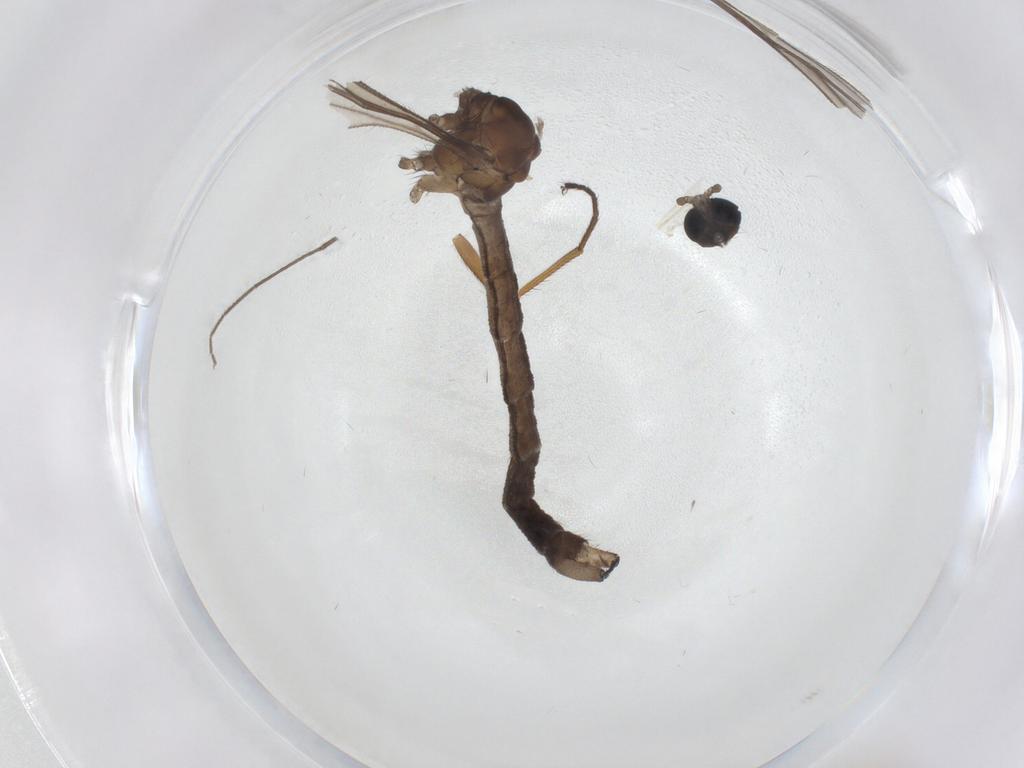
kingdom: Animalia
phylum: Arthropoda
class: Insecta
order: Diptera
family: Chironomidae
